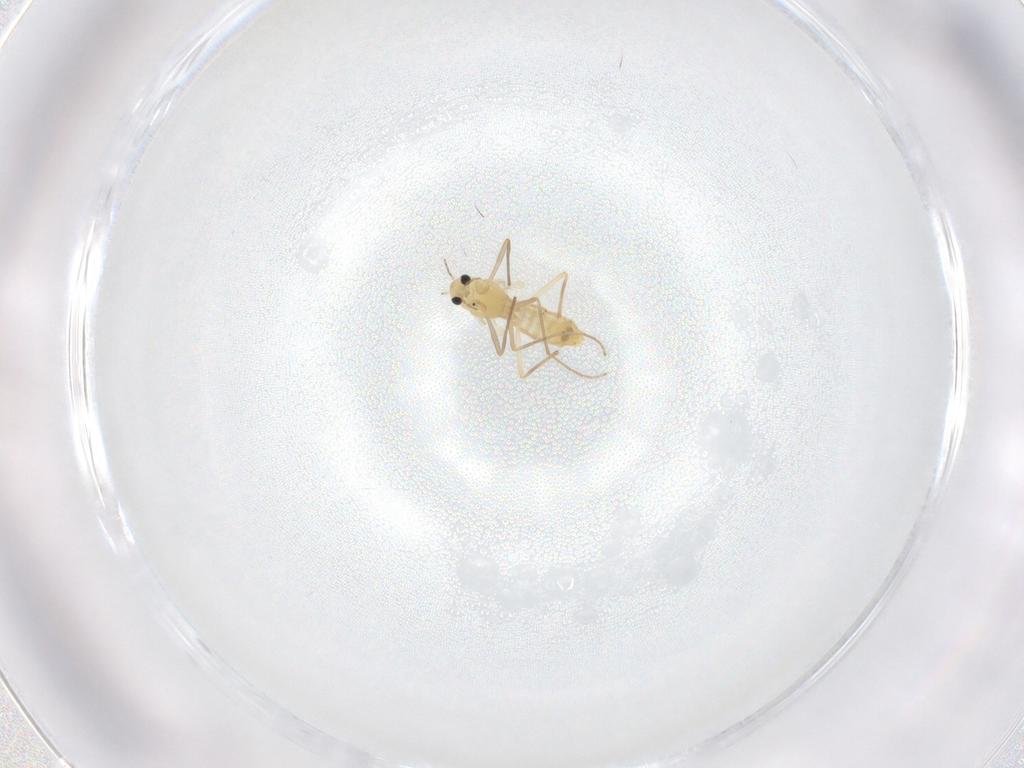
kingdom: Animalia
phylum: Arthropoda
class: Insecta
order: Diptera
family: Chironomidae
